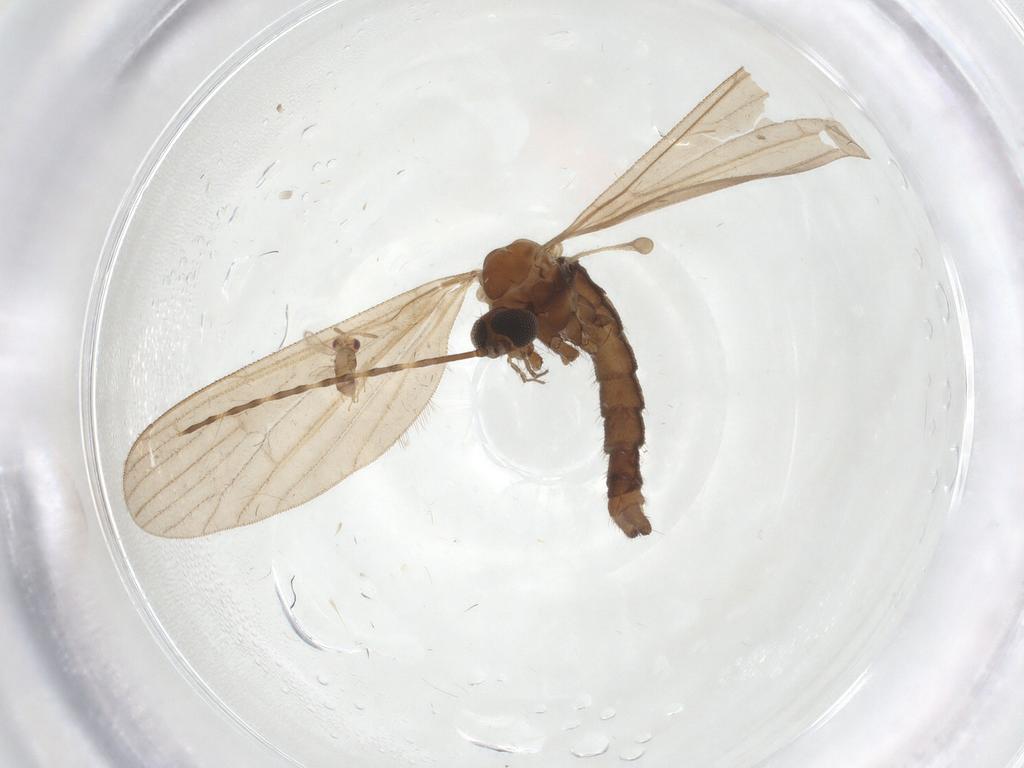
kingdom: Animalia
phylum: Arthropoda
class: Insecta
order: Diptera
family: Limoniidae
